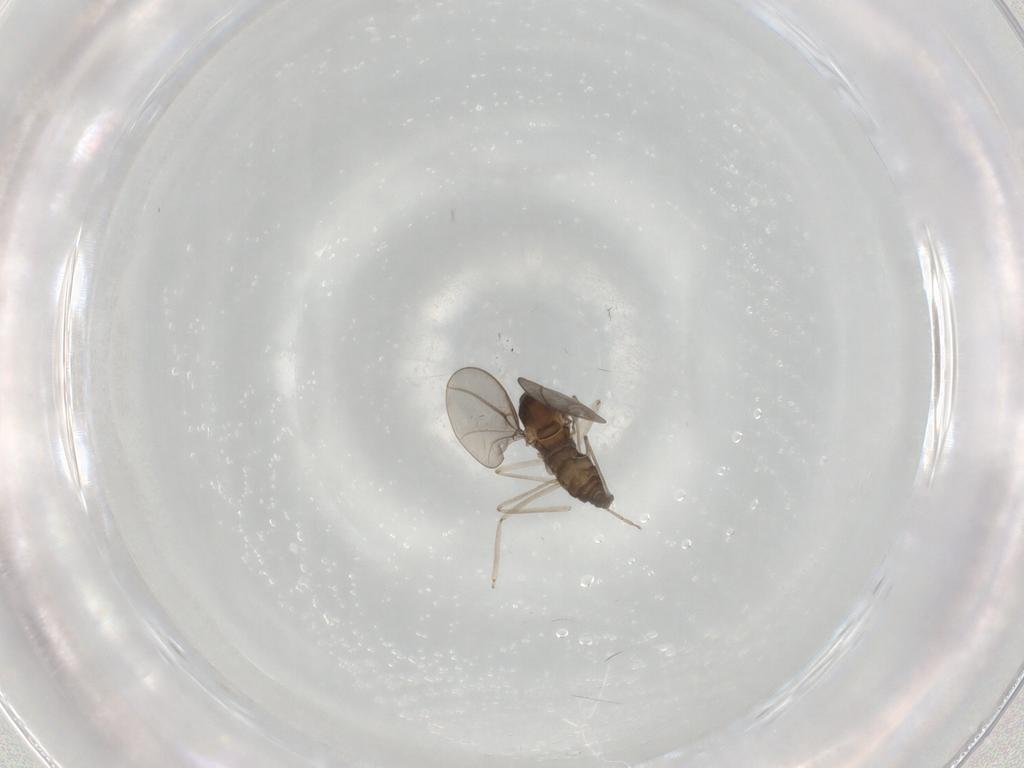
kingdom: Animalia
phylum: Arthropoda
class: Insecta
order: Diptera
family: Cecidomyiidae
